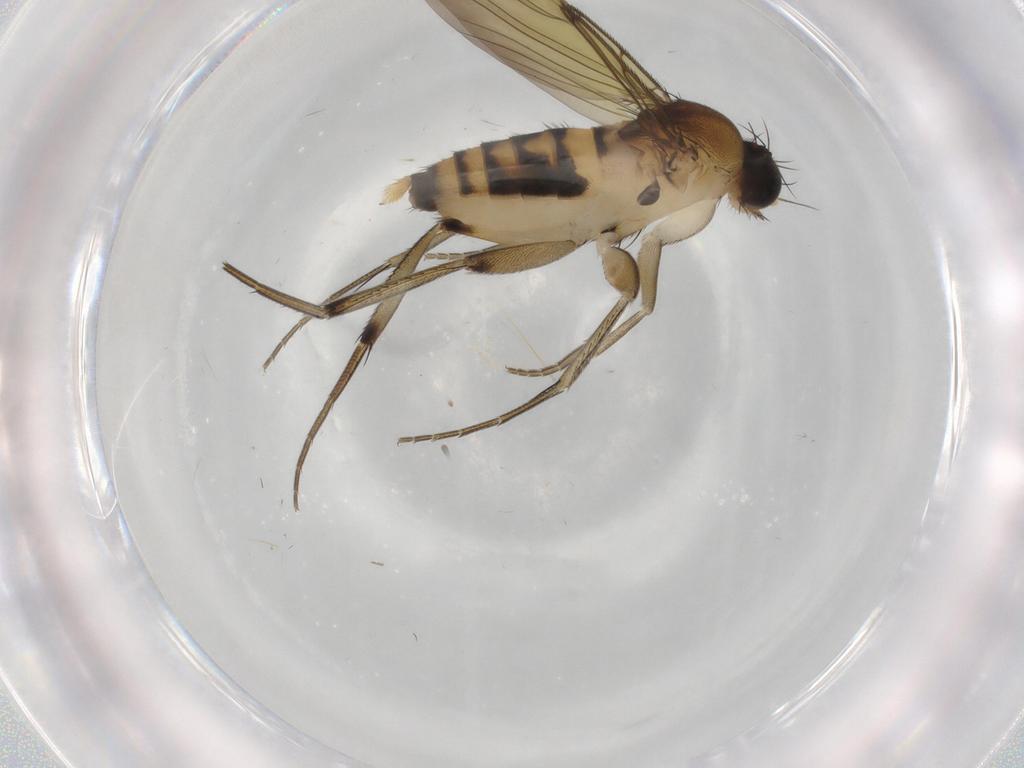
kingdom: Animalia
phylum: Arthropoda
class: Insecta
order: Diptera
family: Phoridae
